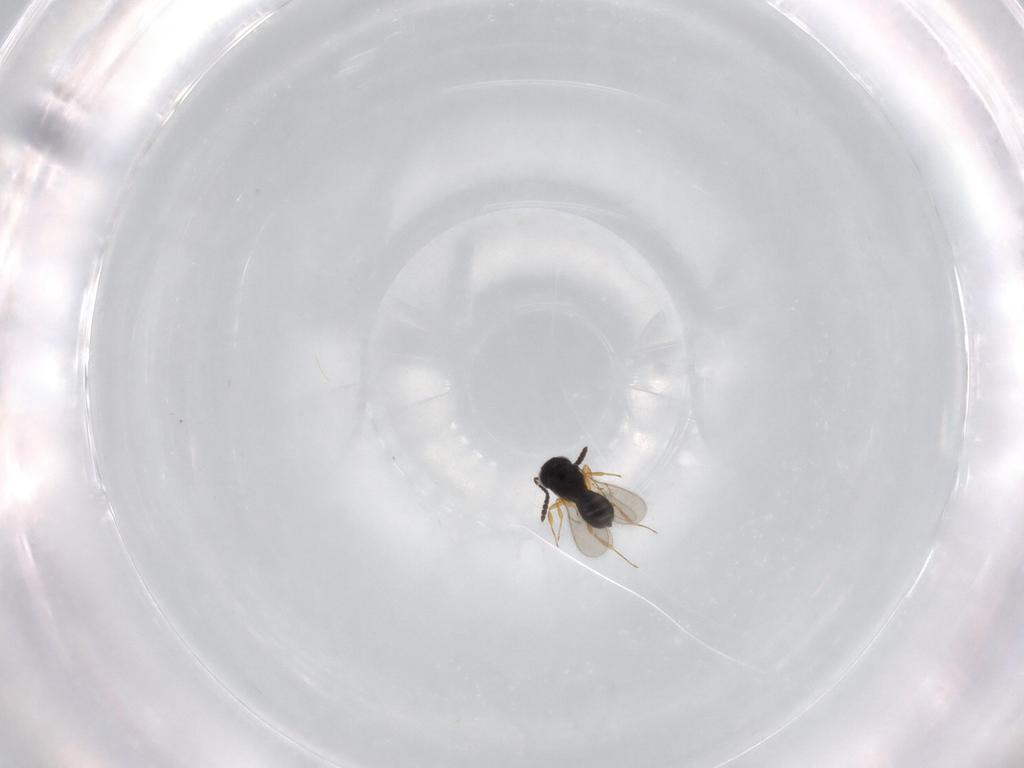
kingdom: Animalia
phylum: Arthropoda
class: Insecta
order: Hymenoptera
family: Scelionidae
